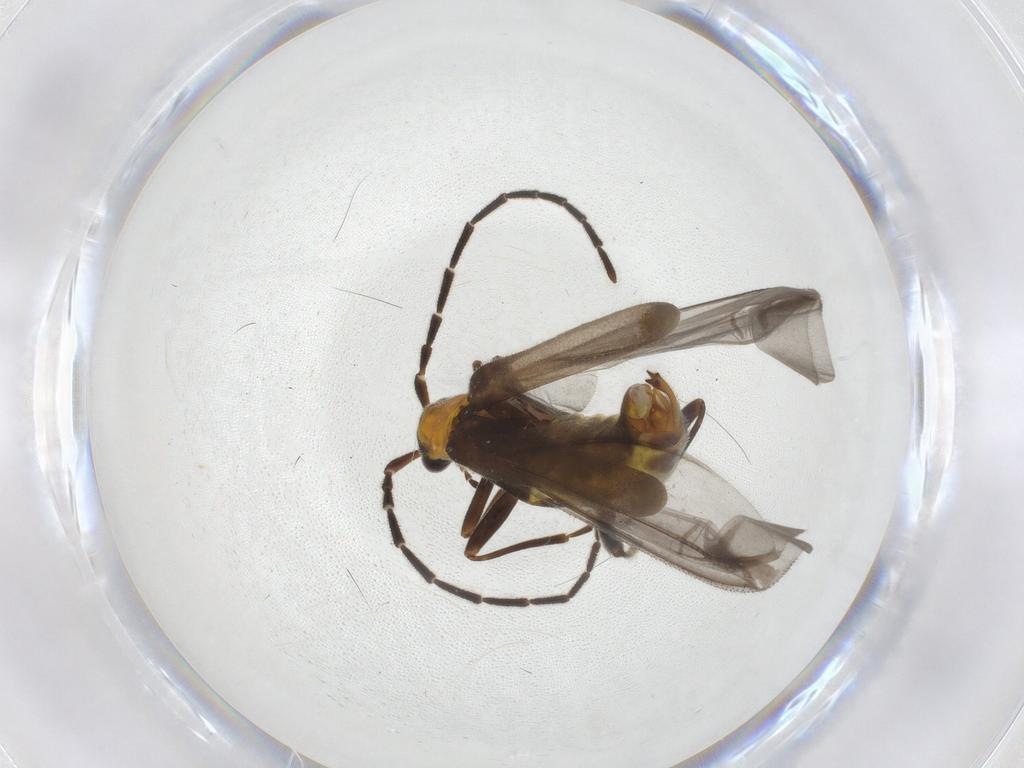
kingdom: Animalia
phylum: Arthropoda
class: Insecta
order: Coleoptera
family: Cantharidae
